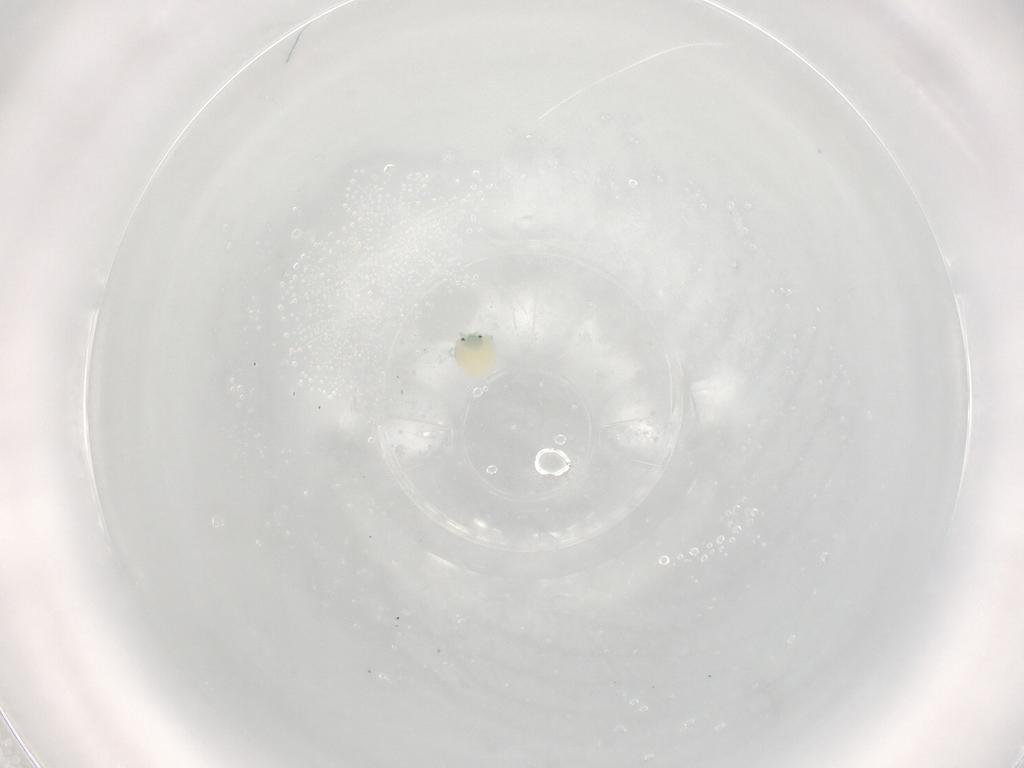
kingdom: Animalia
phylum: Arthropoda
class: Arachnida
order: Trombidiformes
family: Arrenuridae
